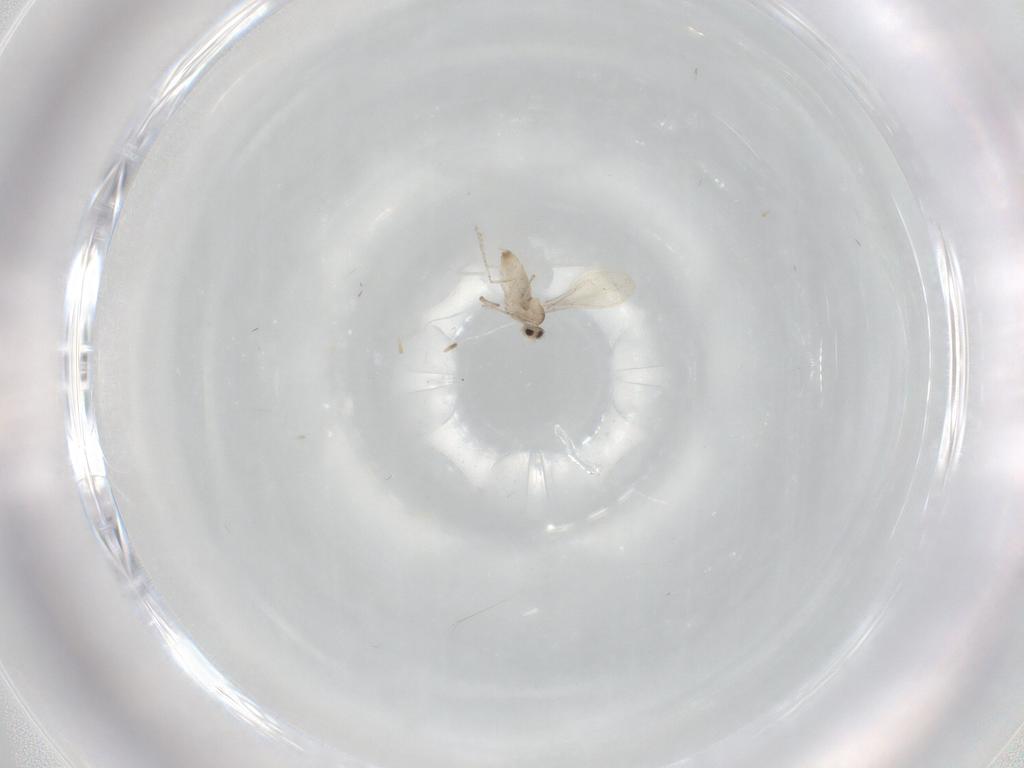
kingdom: Animalia
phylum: Arthropoda
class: Insecta
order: Diptera
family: Cecidomyiidae
